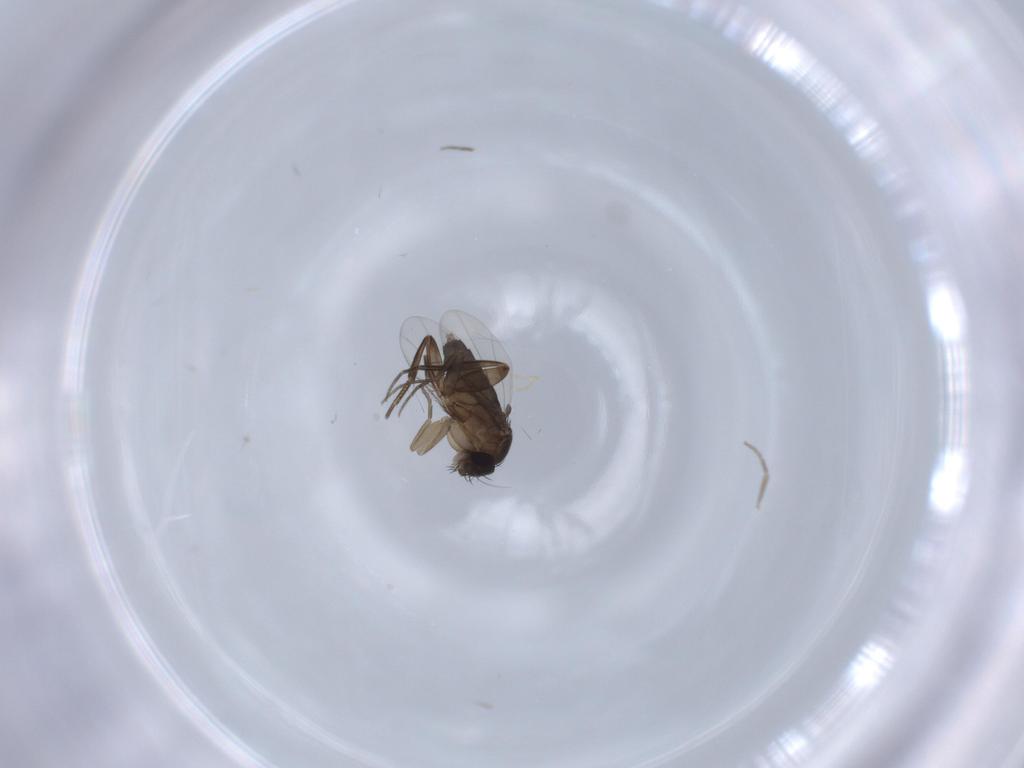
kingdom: Animalia
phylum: Arthropoda
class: Insecta
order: Diptera
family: Phoridae
